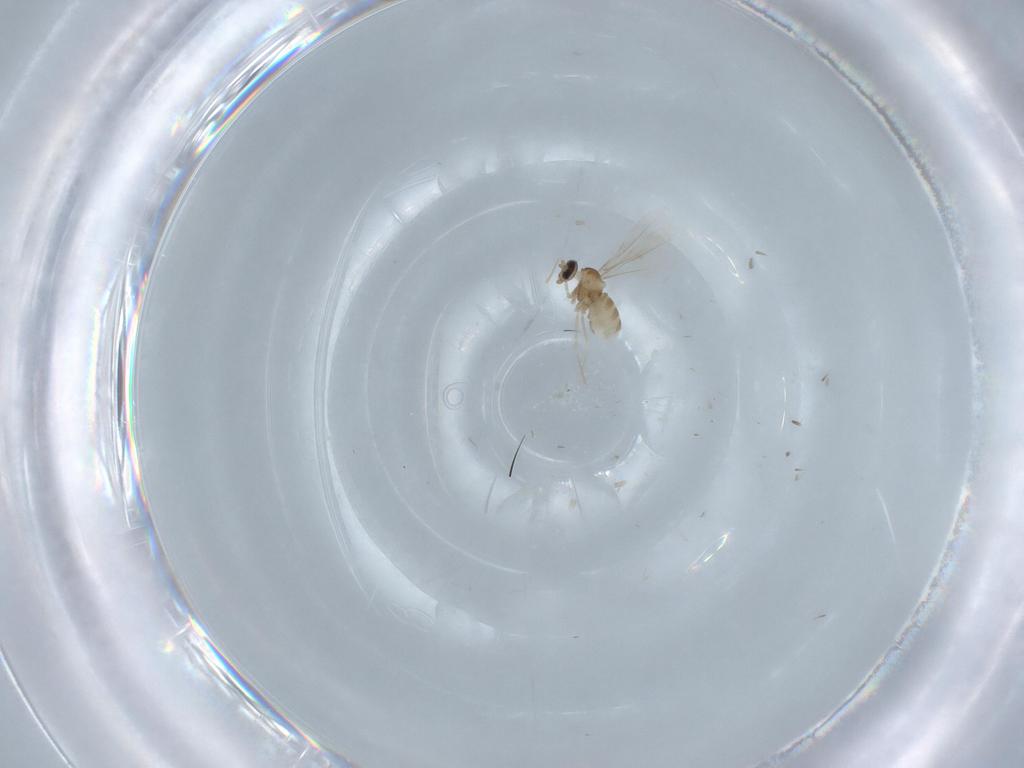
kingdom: Animalia
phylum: Arthropoda
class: Insecta
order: Diptera
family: Cecidomyiidae
